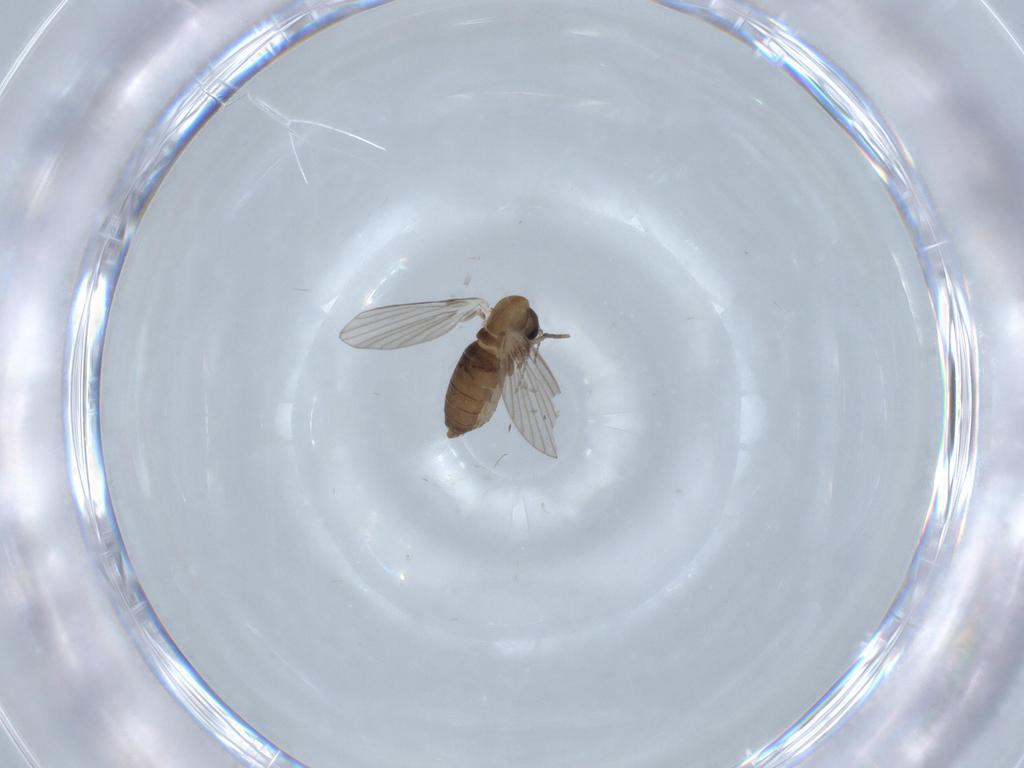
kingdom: Animalia
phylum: Arthropoda
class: Insecta
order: Diptera
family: Psychodidae
